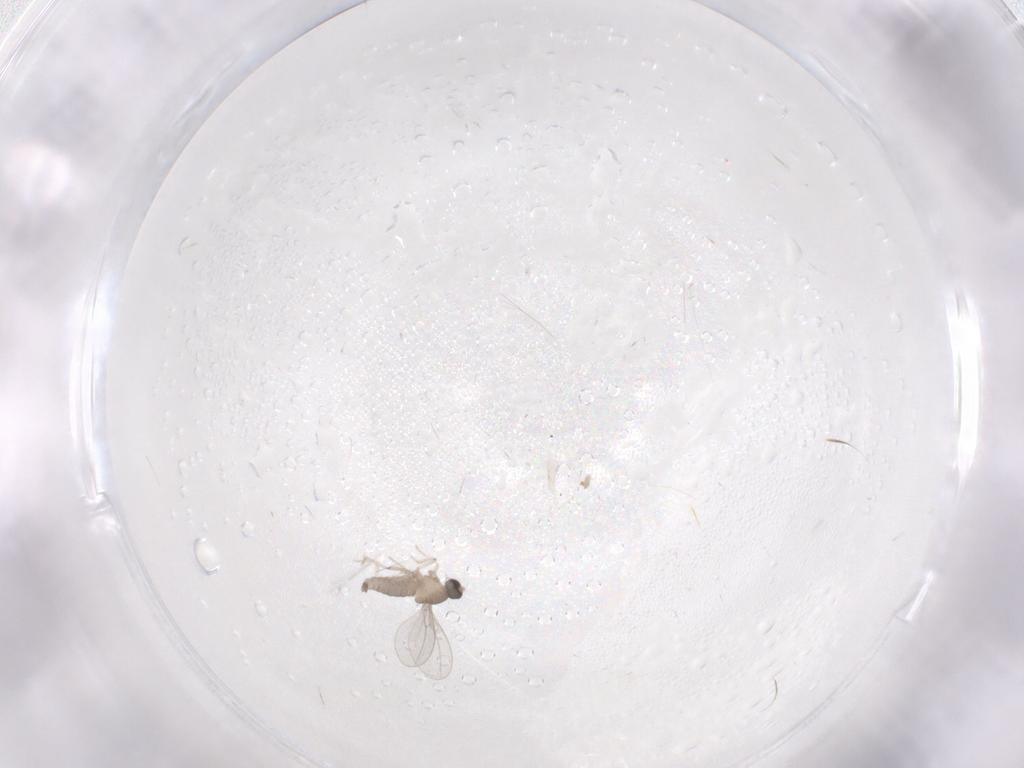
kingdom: Animalia
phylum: Arthropoda
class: Insecta
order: Diptera
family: Cecidomyiidae
